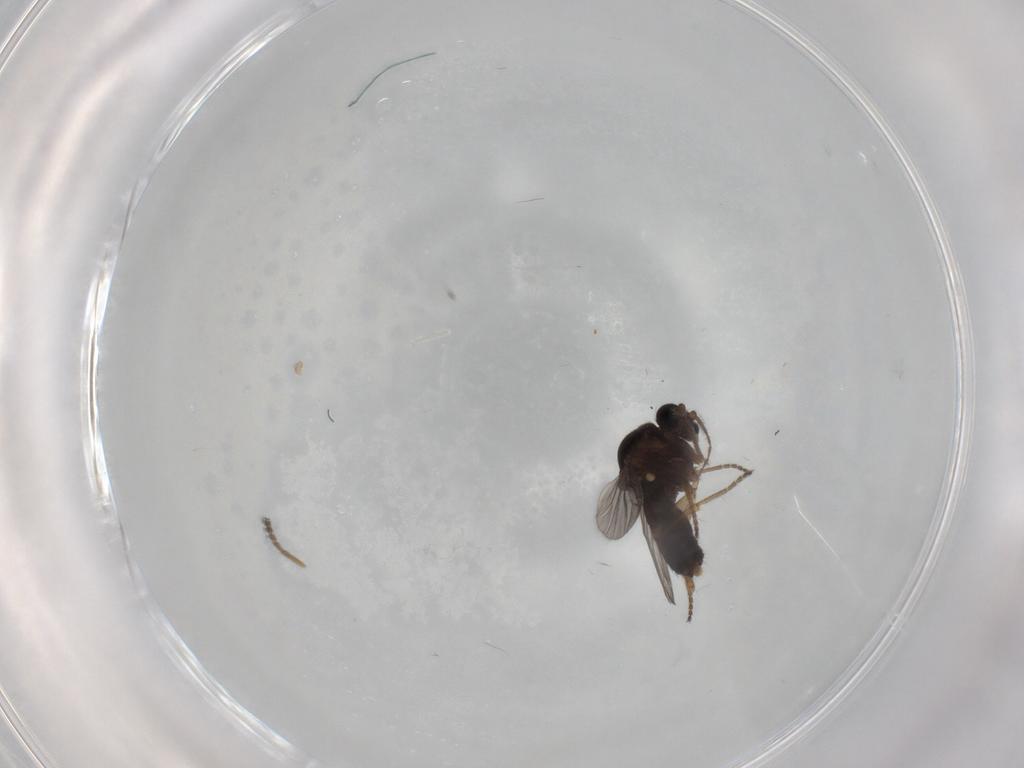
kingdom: Animalia
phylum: Arthropoda
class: Insecta
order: Diptera
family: Ceratopogonidae
